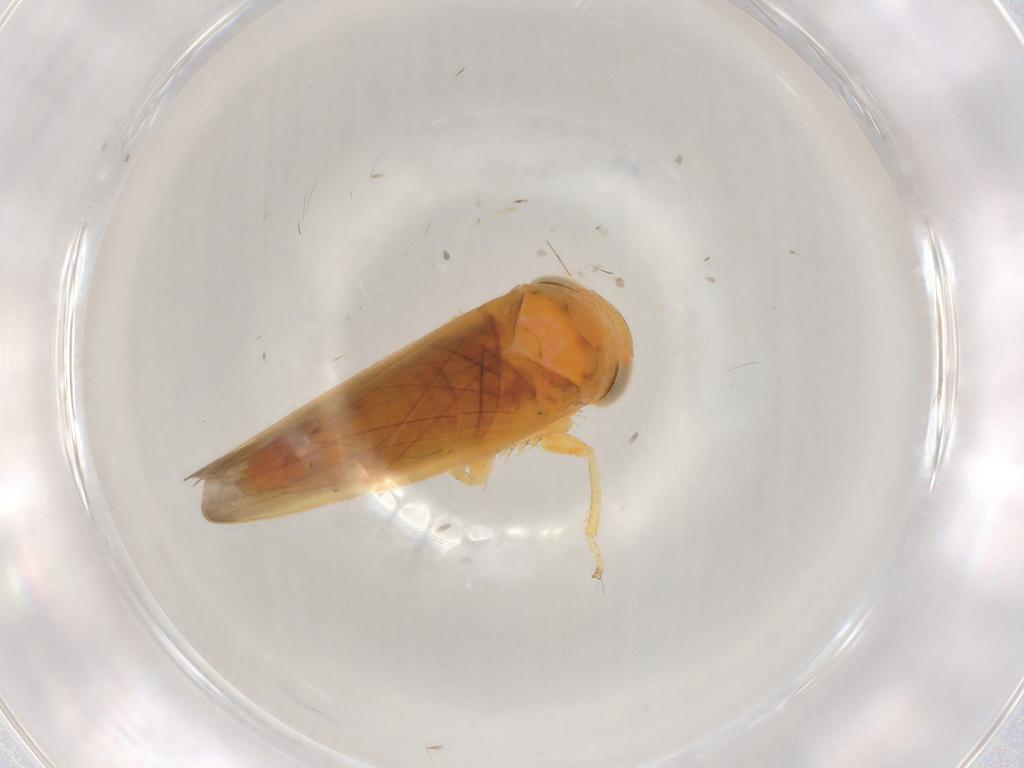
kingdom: Animalia
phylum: Arthropoda
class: Insecta
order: Hemiptera
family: Cicadellidae
